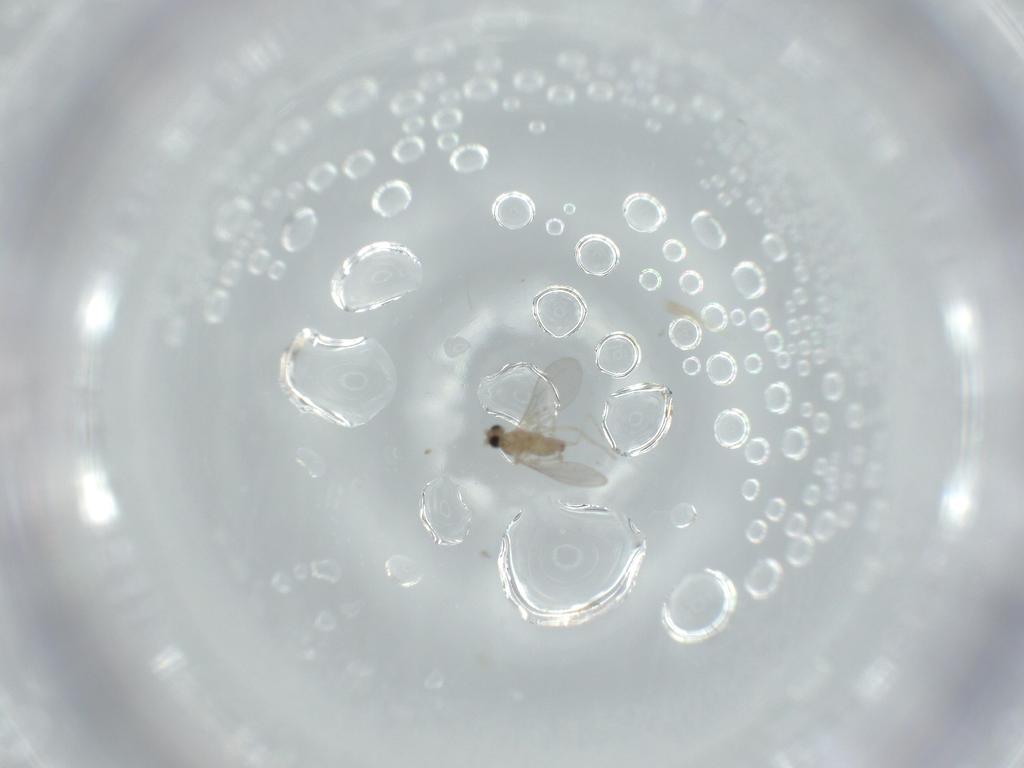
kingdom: Animalia
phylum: Arthropoda
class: Insecta
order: Diptera
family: Cecidomyiidae
